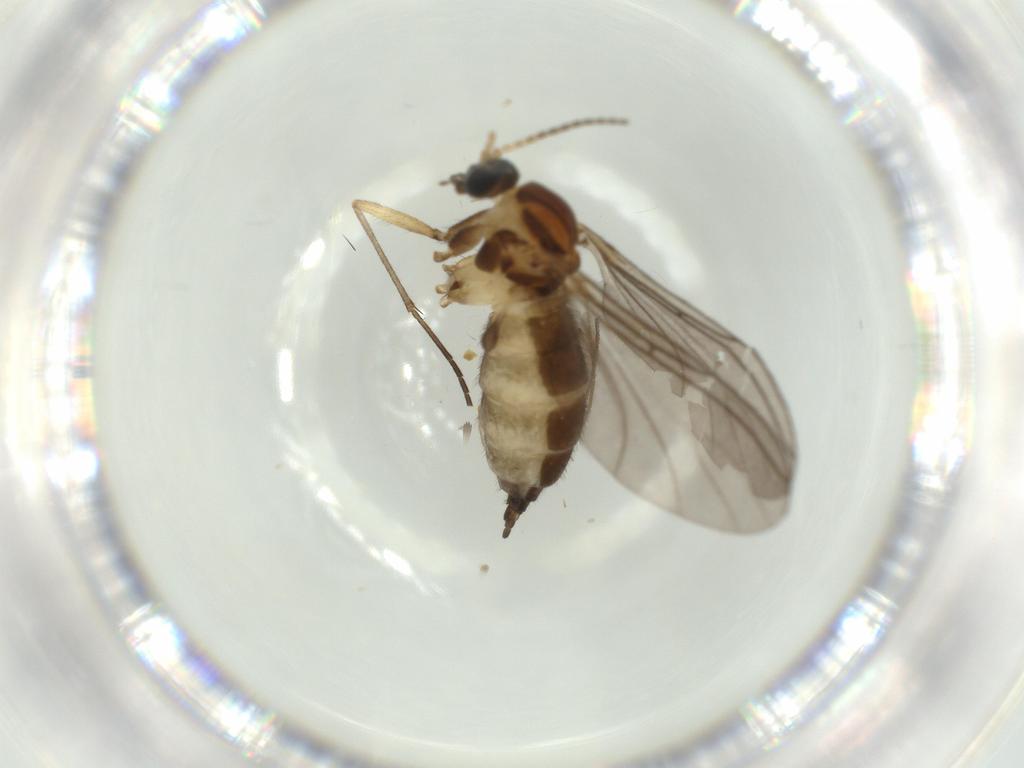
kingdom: Animalia
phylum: Arthropoda
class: Insecta
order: Diptera
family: Sciaridae
